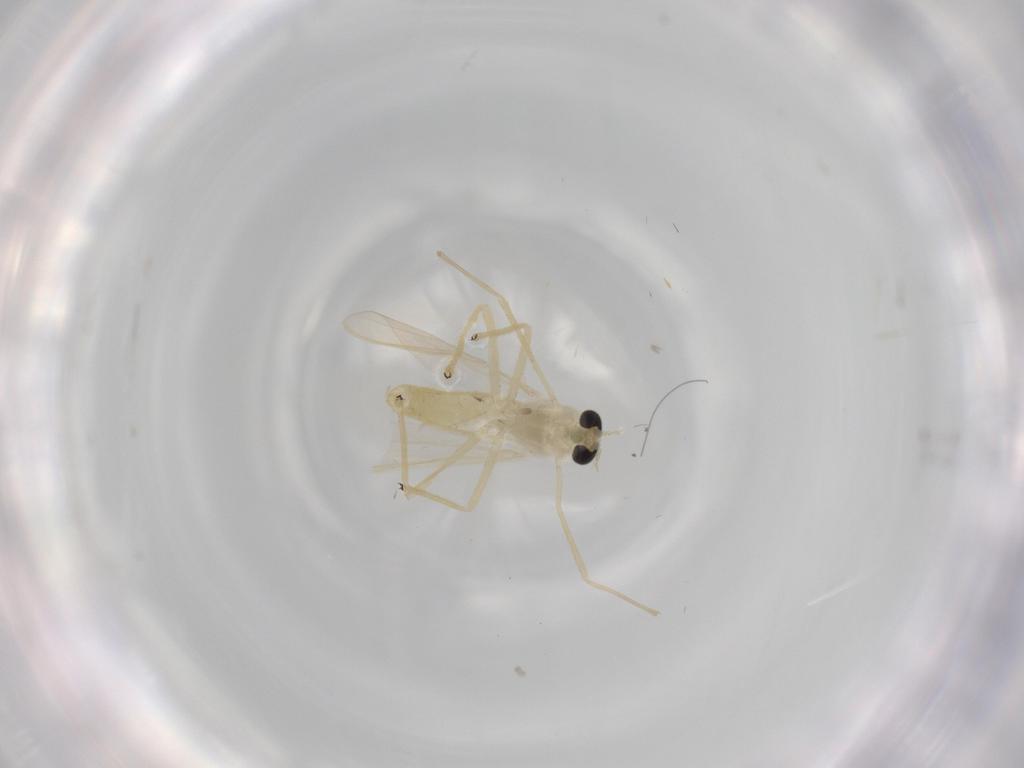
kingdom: Animalia
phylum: Arthropoda
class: Insecta
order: Diptera
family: Chironomidae
